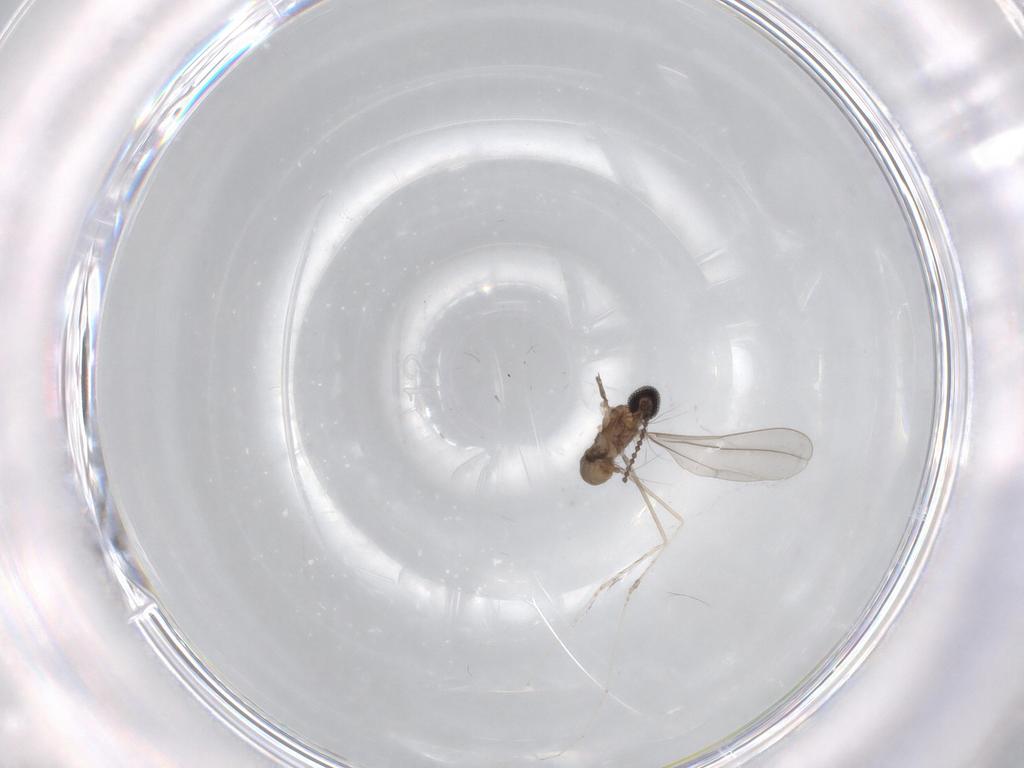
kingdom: Animalia
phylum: Arthropoda
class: Insecta
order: Diptera
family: Cecidomyiidae
